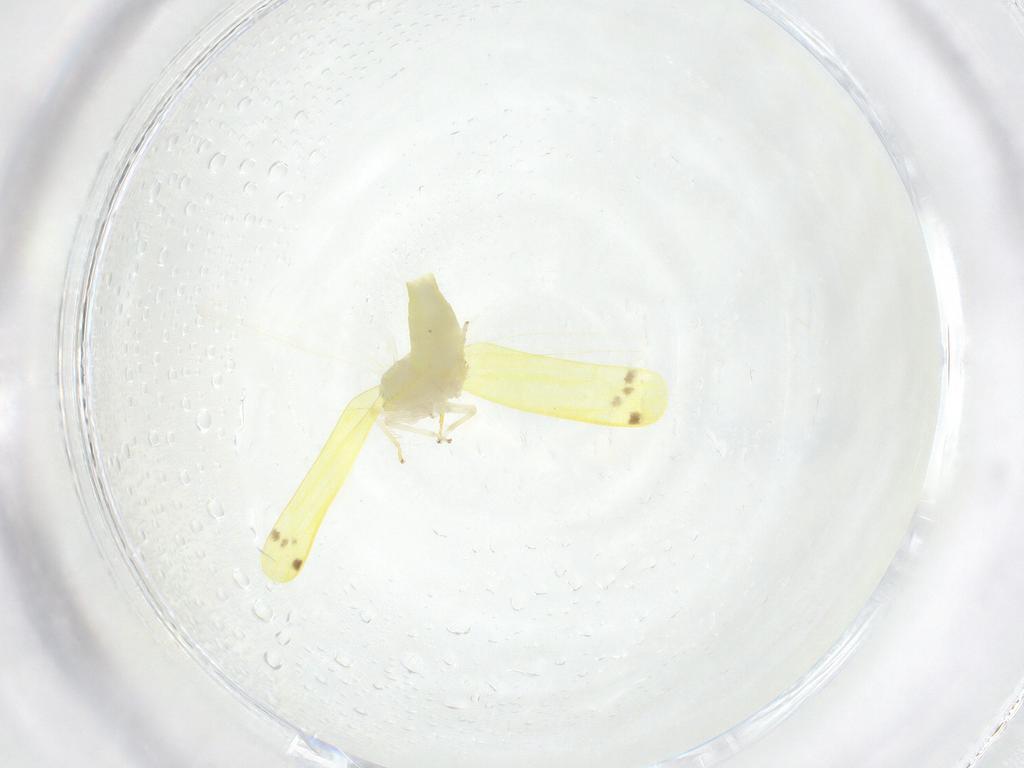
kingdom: Animalia
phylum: Arthropoda
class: Insecta
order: Hemiptera
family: Cicadellidae
